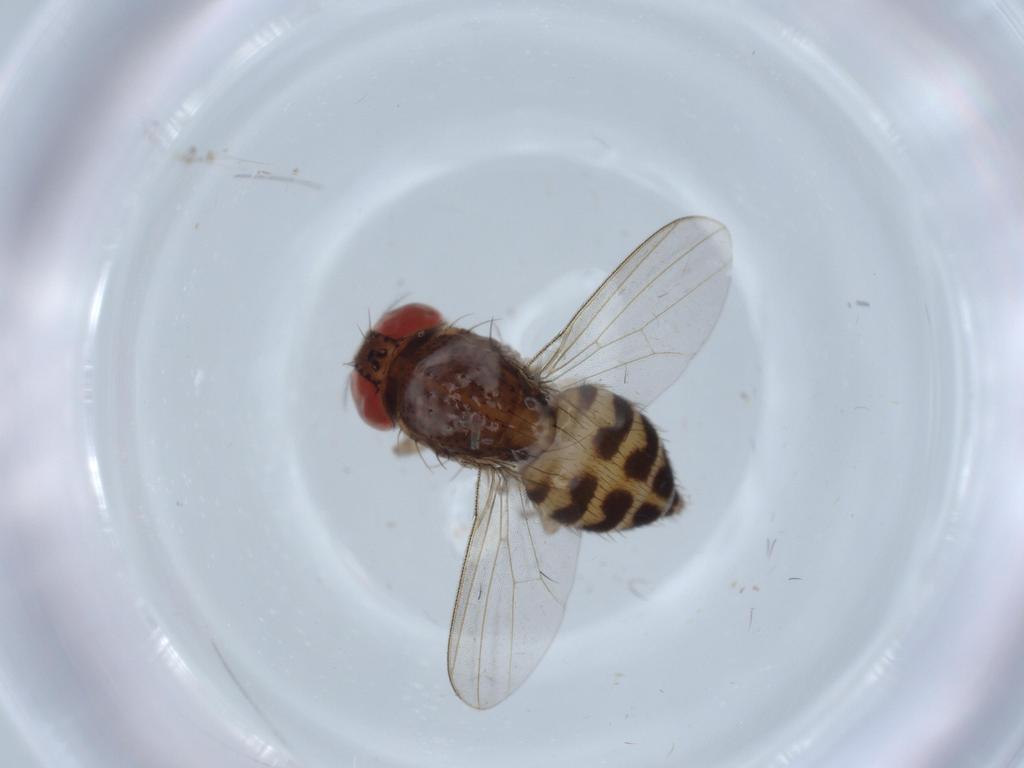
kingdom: Animalia
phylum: Arthropoda
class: Insecta
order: Diptera
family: Drosophilidae
